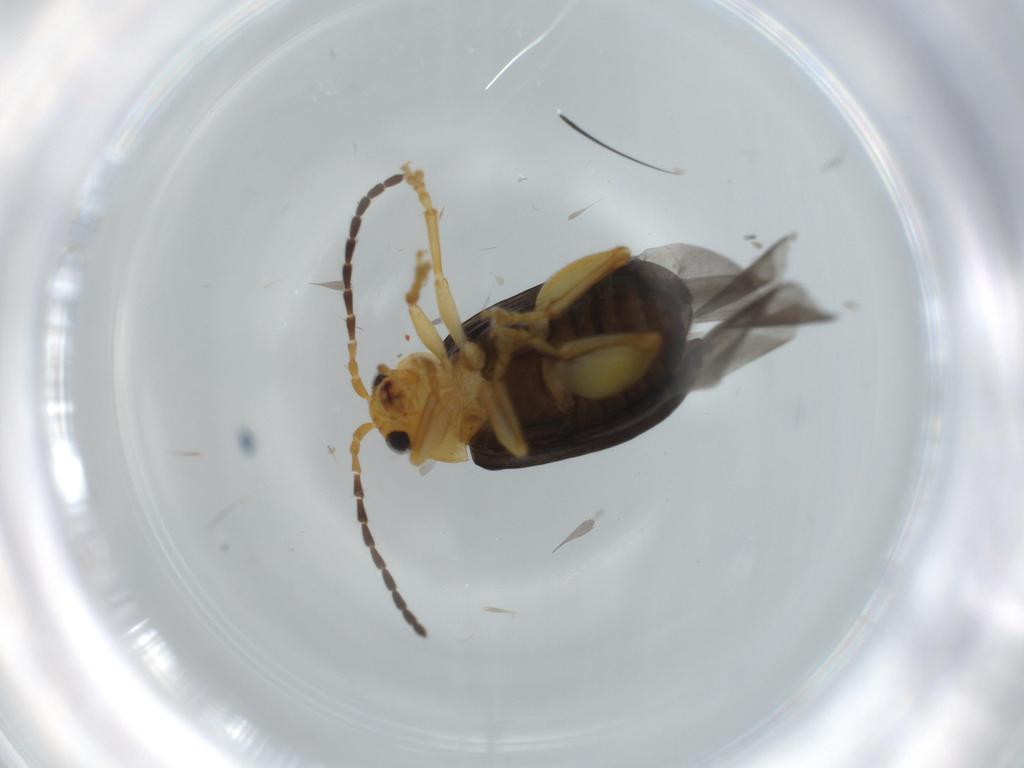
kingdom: Animalia
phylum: Arthropoda
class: Insecta
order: Coleoptera
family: Chrysomelidae
